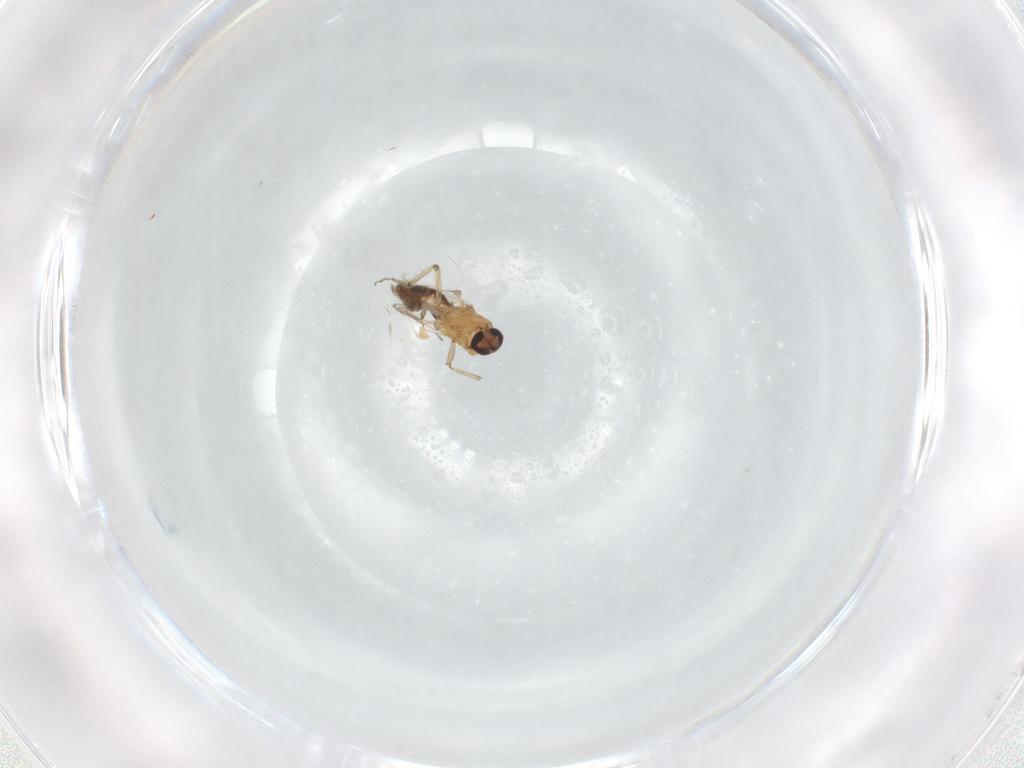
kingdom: Animalia
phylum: Arthropoda
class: Insecta
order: Diptera
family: Ceratopogonidae
